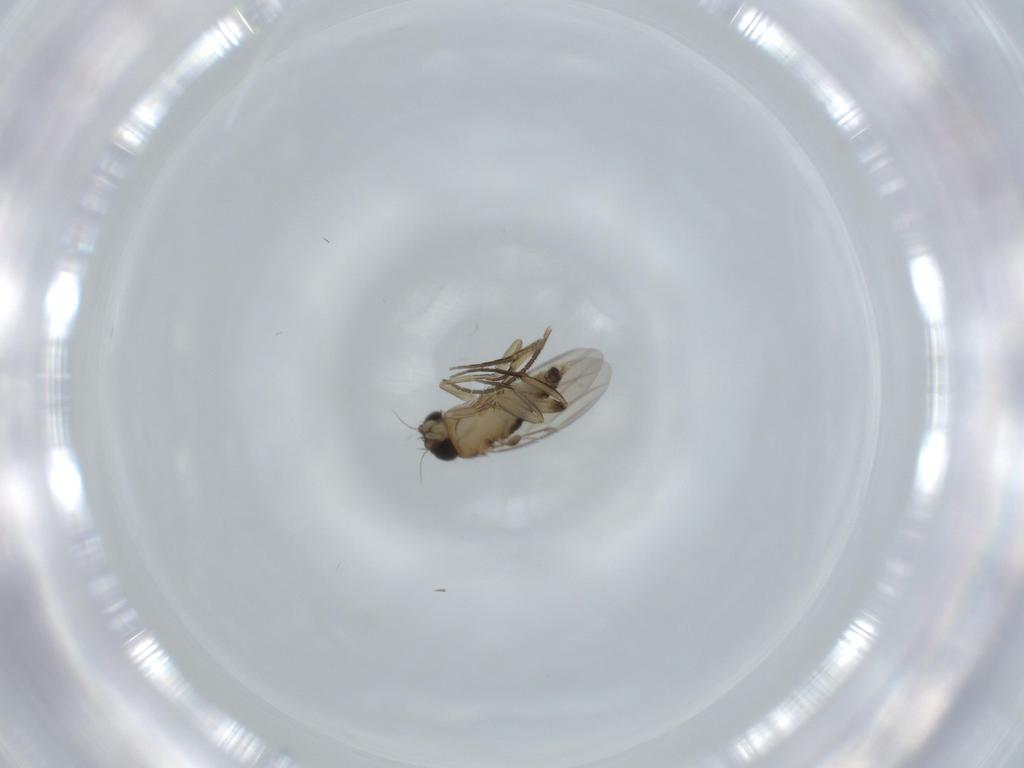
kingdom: Animalia
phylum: Arthropoda
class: Insecta
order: Diptera
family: Phoridae
